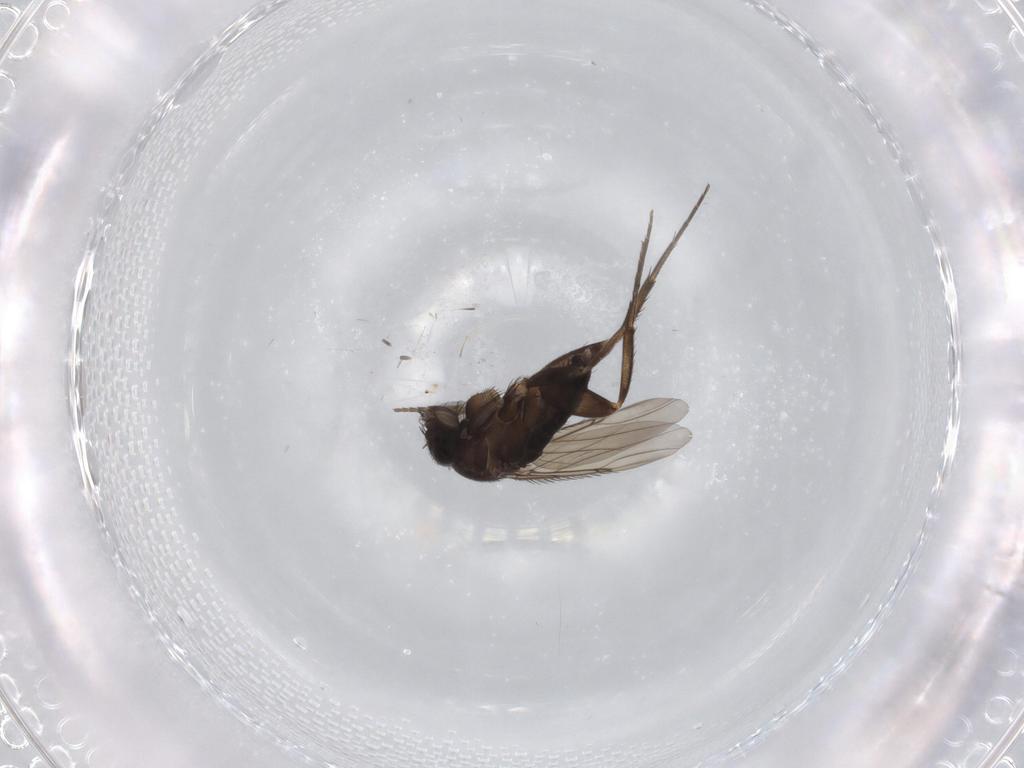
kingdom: Animalia
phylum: Arthropoda
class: Insecta
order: Diptera
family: Phoridae
